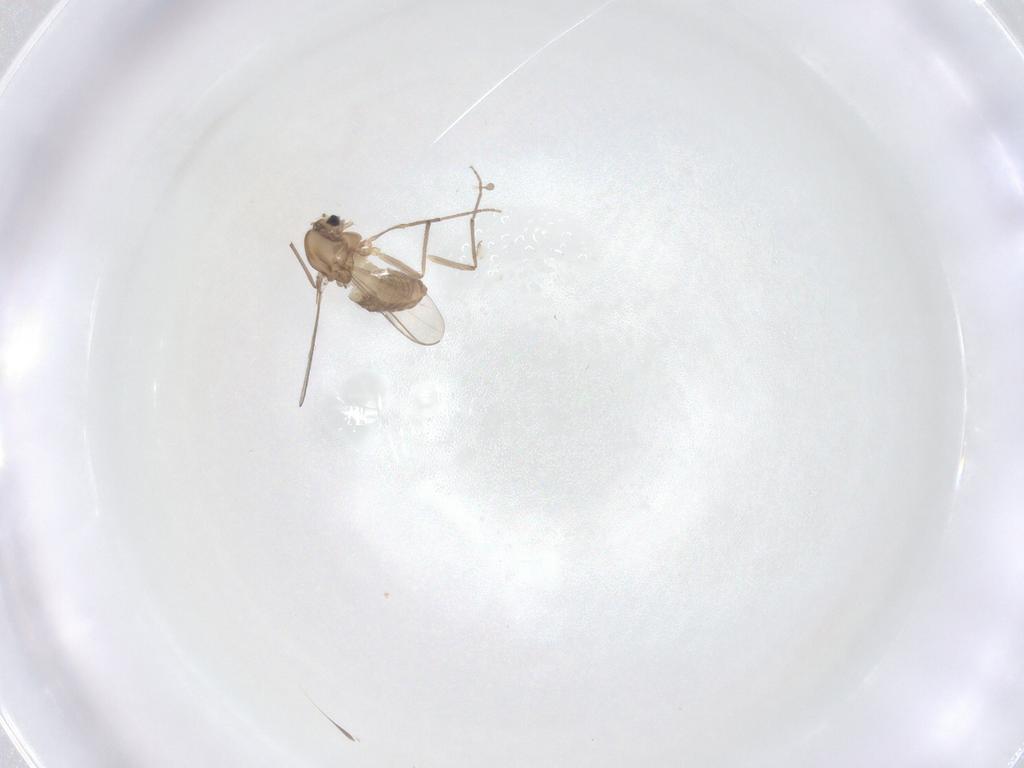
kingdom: Animalia
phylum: Arthropoda
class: Insecta
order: Diptera
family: Chironomidae
